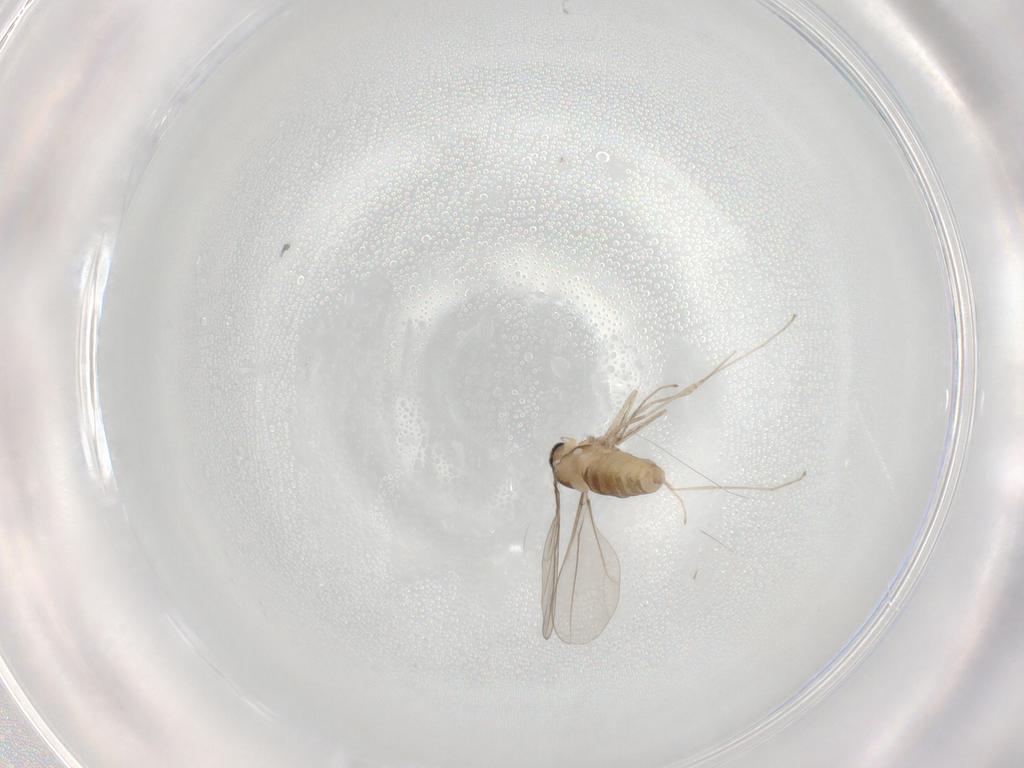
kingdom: Animalia
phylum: Arthropoda
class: Insecta
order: Diptera
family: Cecidomyiidae
